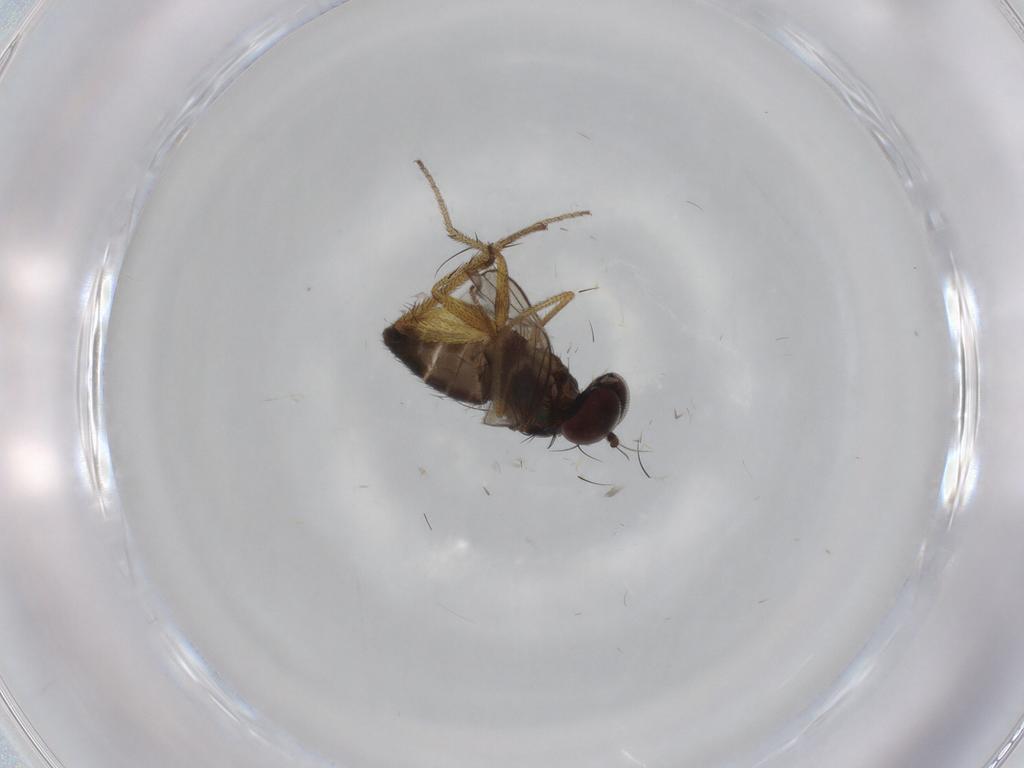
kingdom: Animalia
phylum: Arthropoda
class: Insecta
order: Diptera
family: Dolichopodidae
